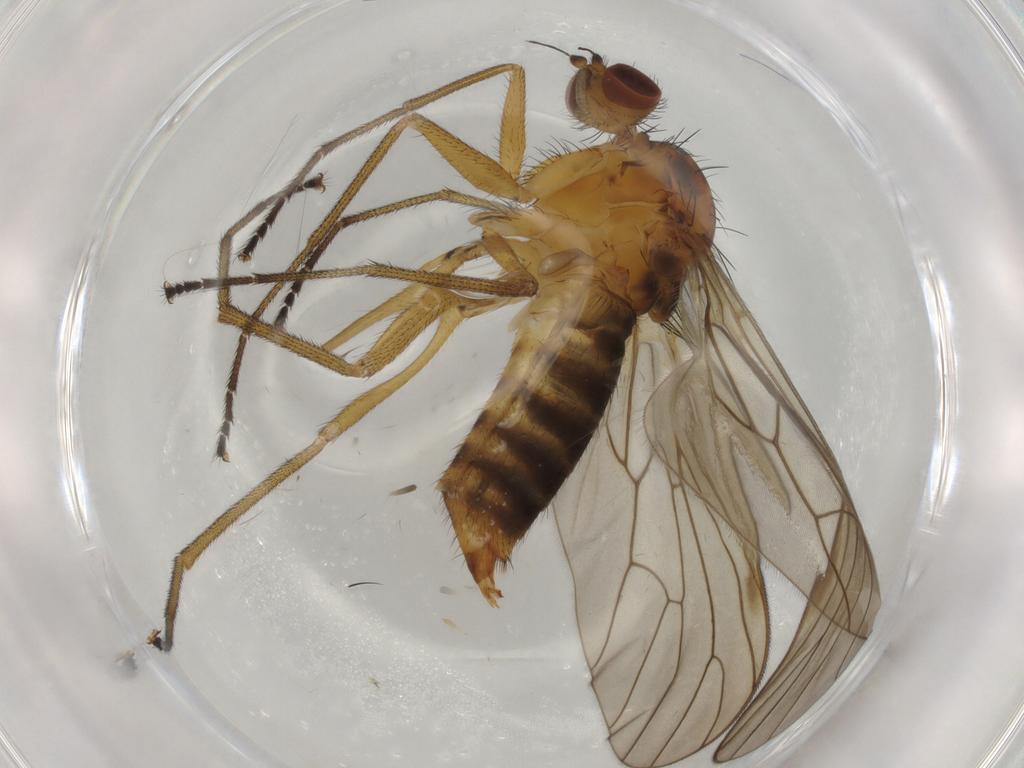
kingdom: Animalia
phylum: Arthropoda
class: Insecta
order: Diptera
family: Brachystomatidae
